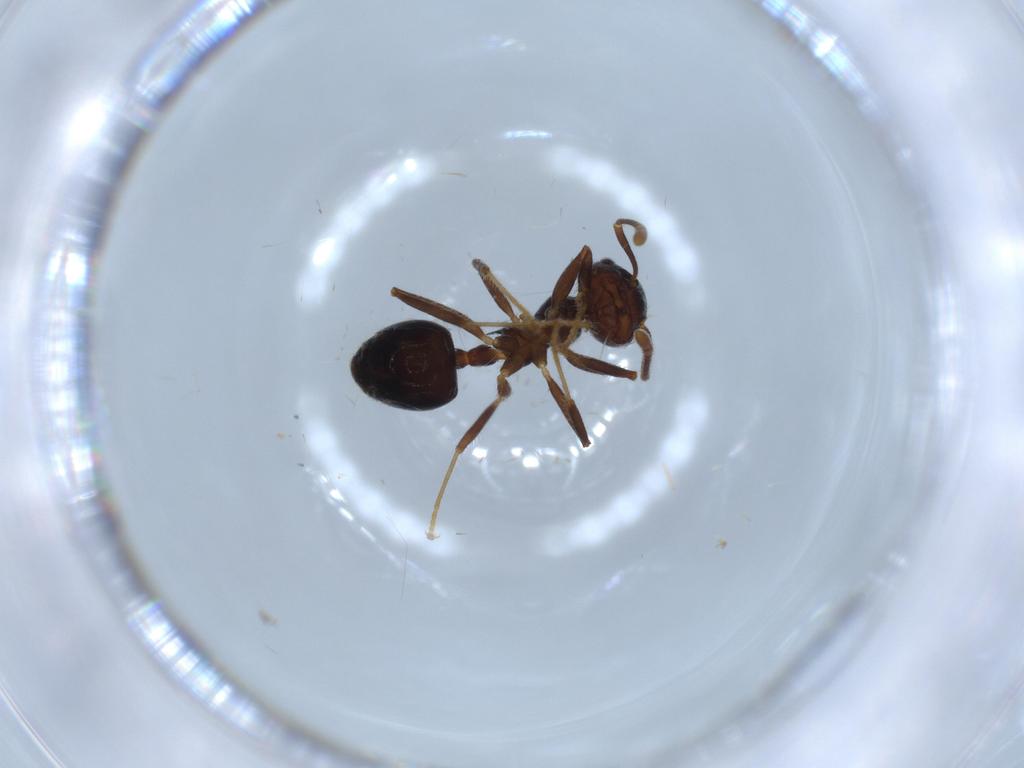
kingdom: Animalia
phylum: Arthropoda
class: Insecta
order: Hymenoptera
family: Formicidae
